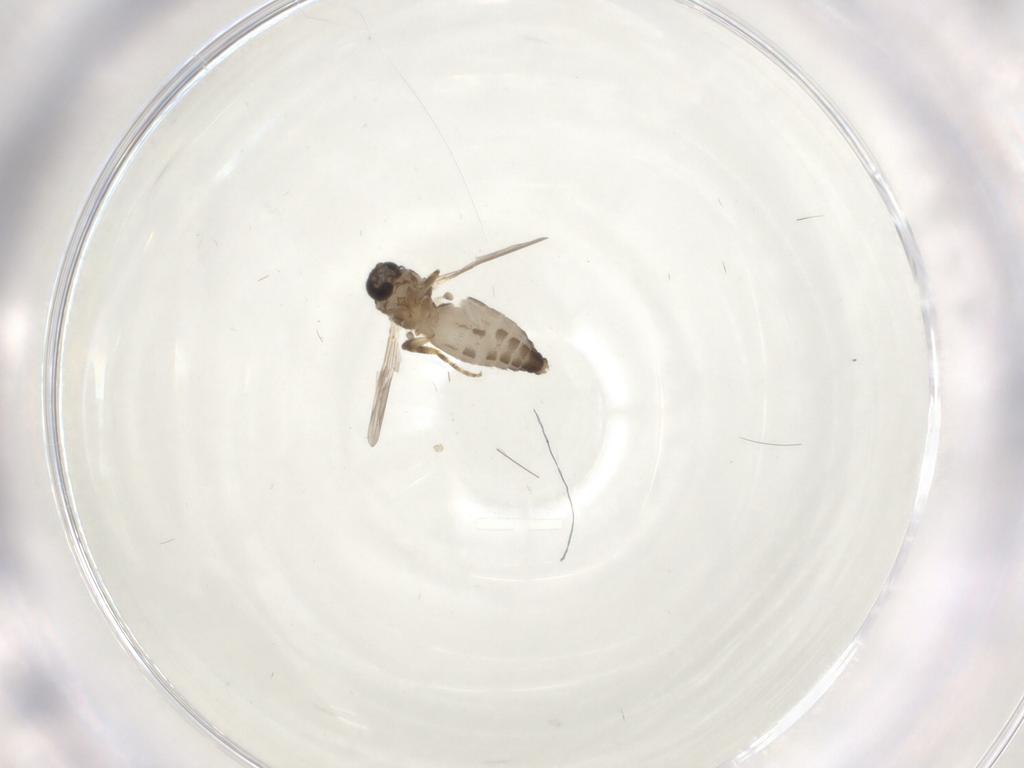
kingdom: Animalia
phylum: Arthropoda
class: Insecta
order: Diptera
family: Ceratopogonidae
